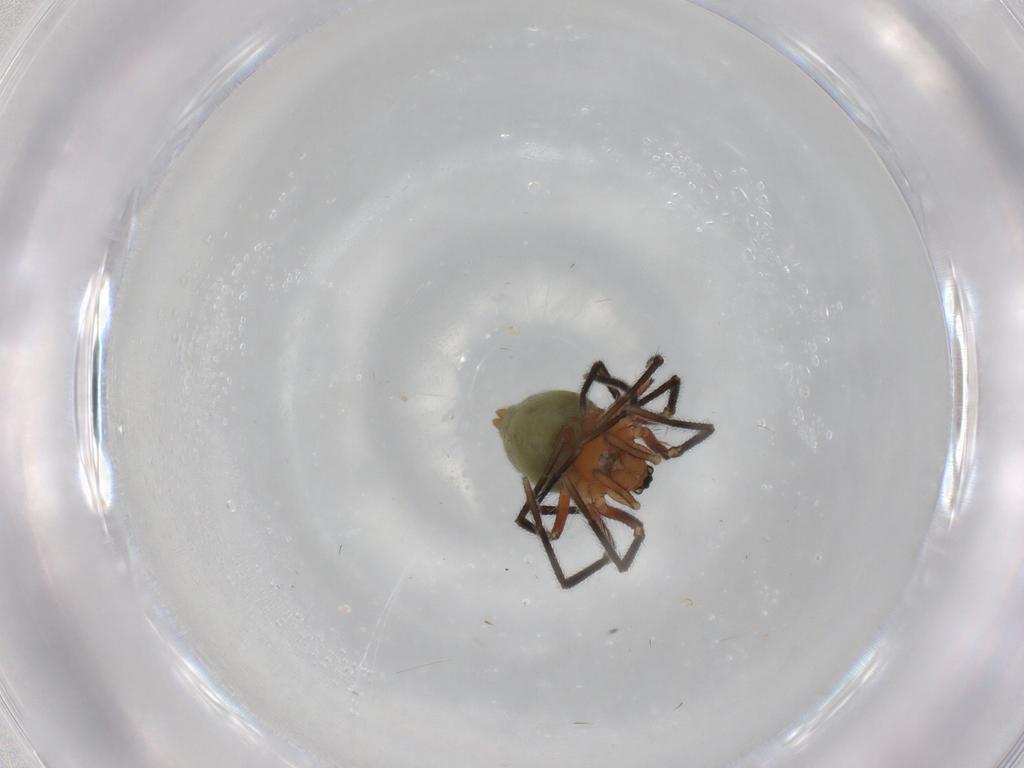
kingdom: Animalia
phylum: Arthropoda
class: Arachnida
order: Araneae
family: Linyphiidae
